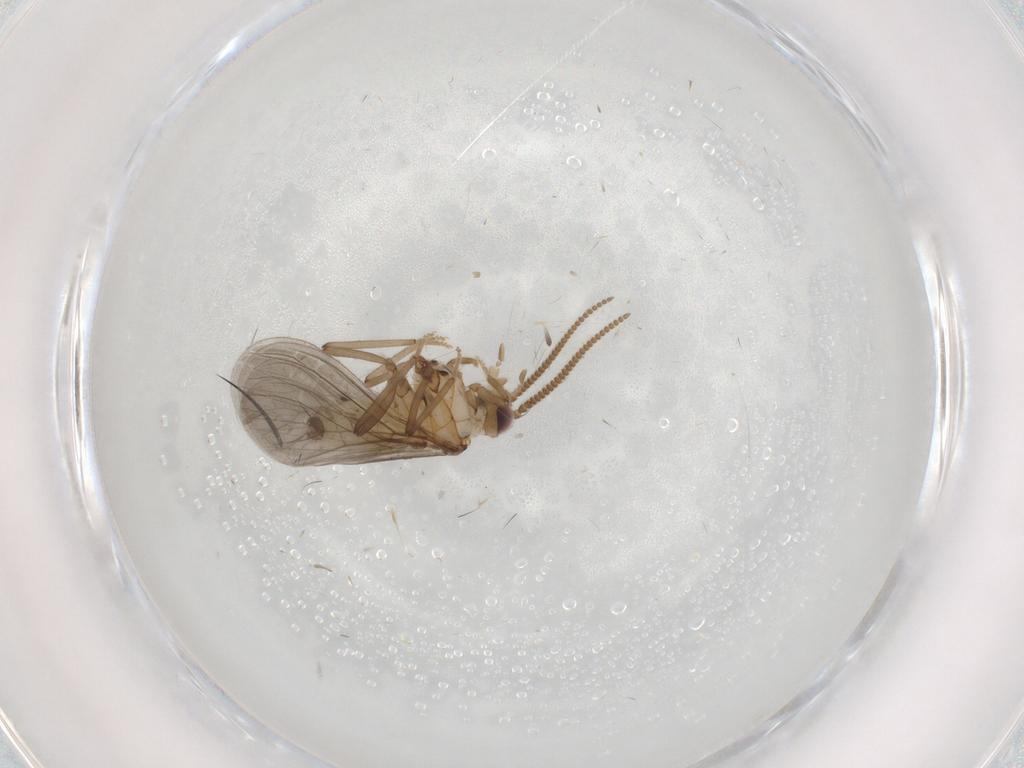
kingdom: Animalia
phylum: Arthropoda
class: Insecta
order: Neuroptera
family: Coniopterygidae
